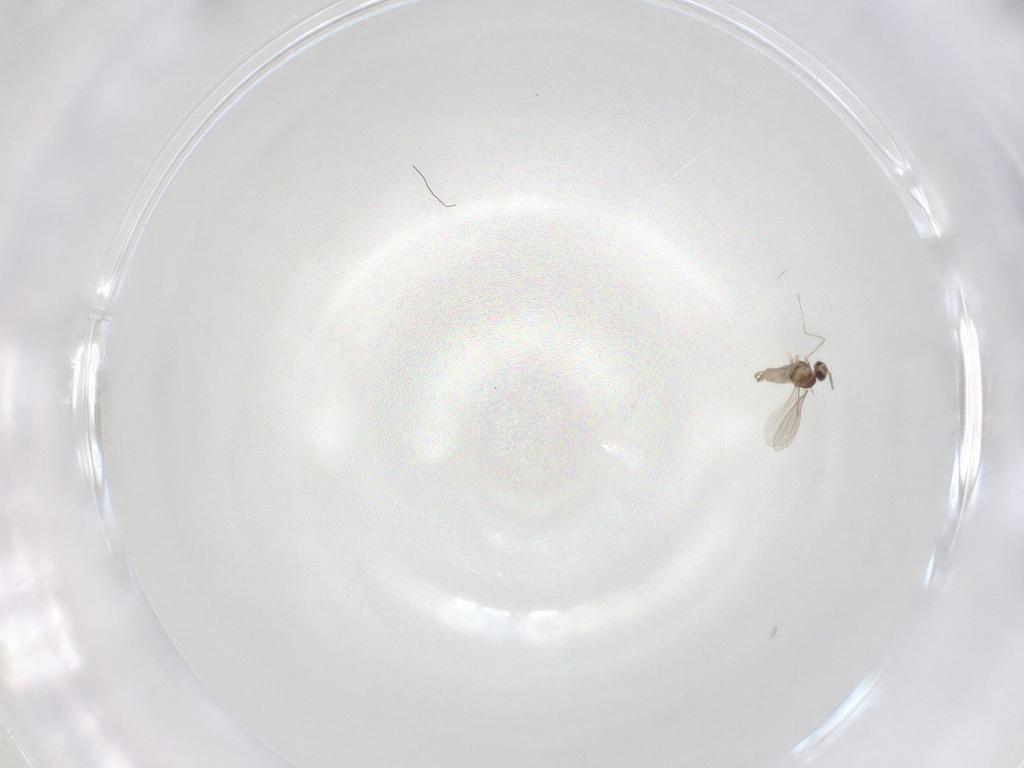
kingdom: Animalia
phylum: Arthropoda
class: Insecta
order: Diptera
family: Cecidomyiidae
